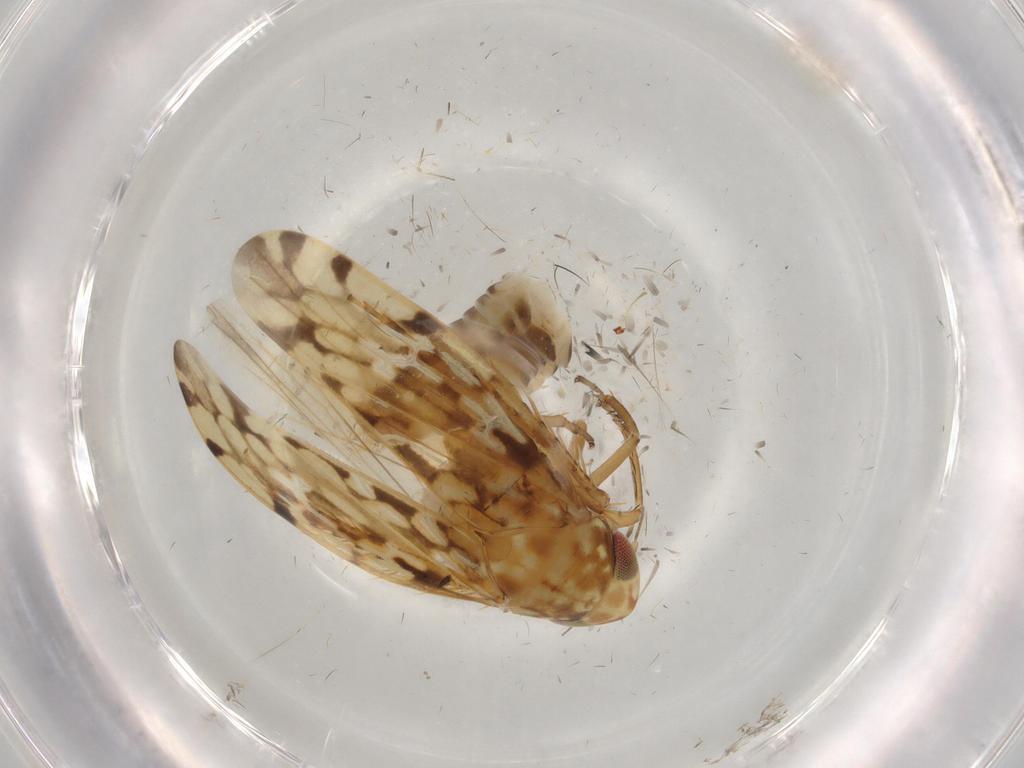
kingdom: Animalia
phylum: Arthropoda
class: Insecta
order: Hemiptera
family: Cicadellidae
